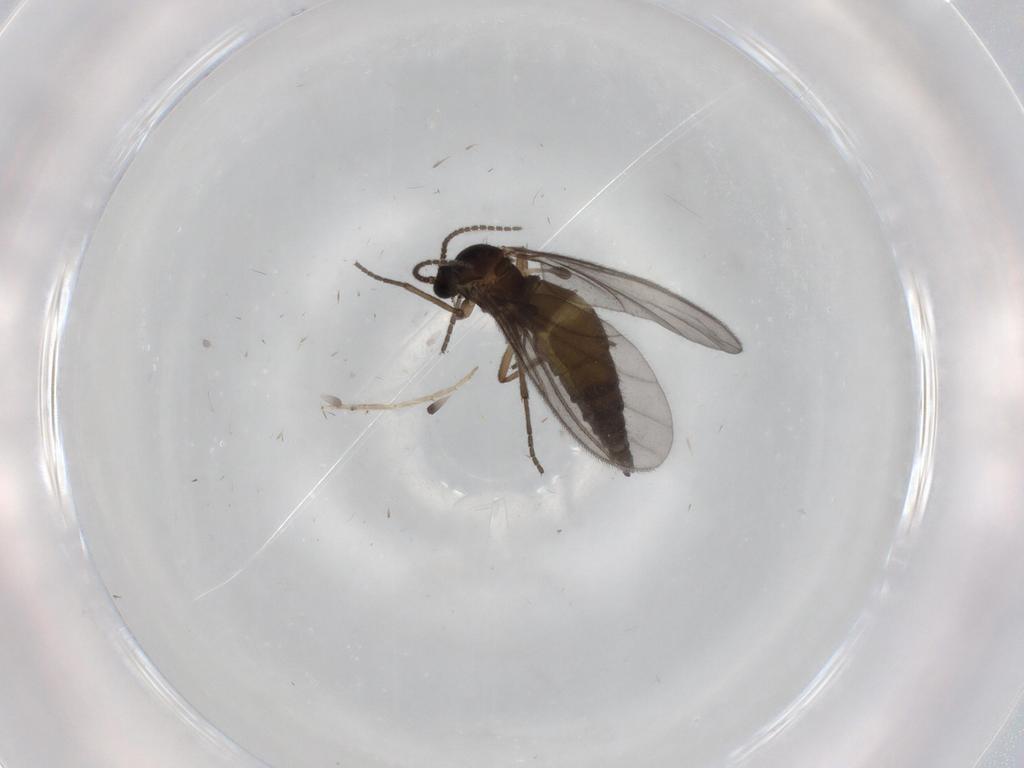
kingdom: Animalia
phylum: Arthropoda
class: Insecta
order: Diptera
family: Sciaridae
